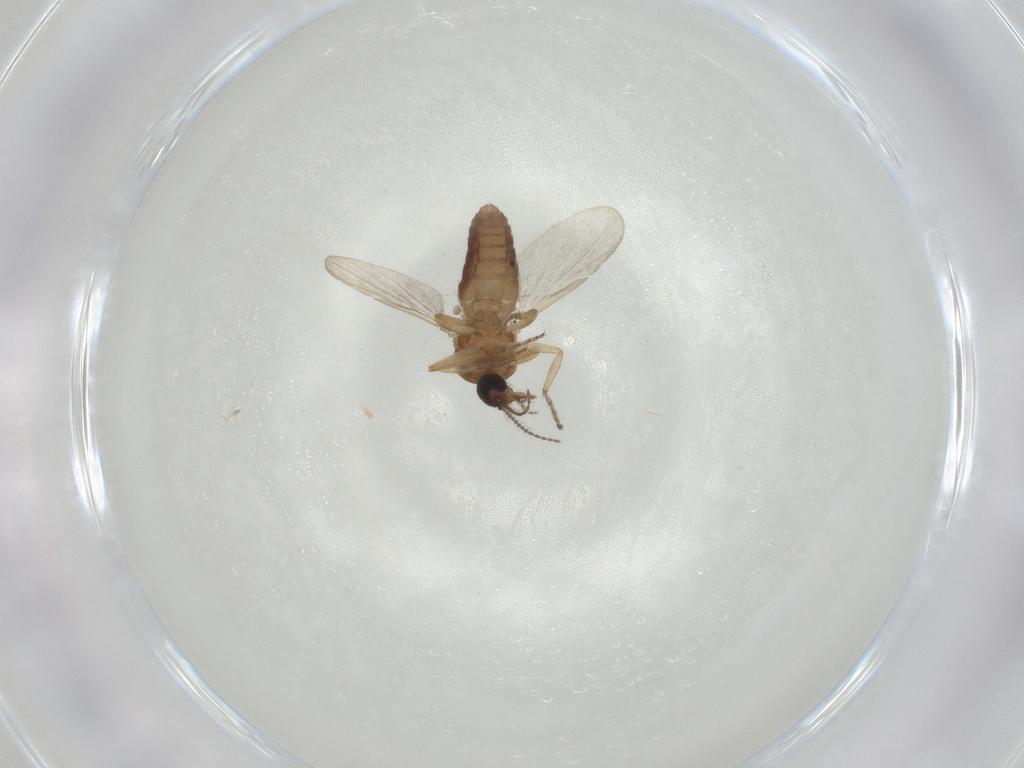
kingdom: Animalia
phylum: Arthropoda
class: Insecta
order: Diptera
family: Ceratopogonidae
